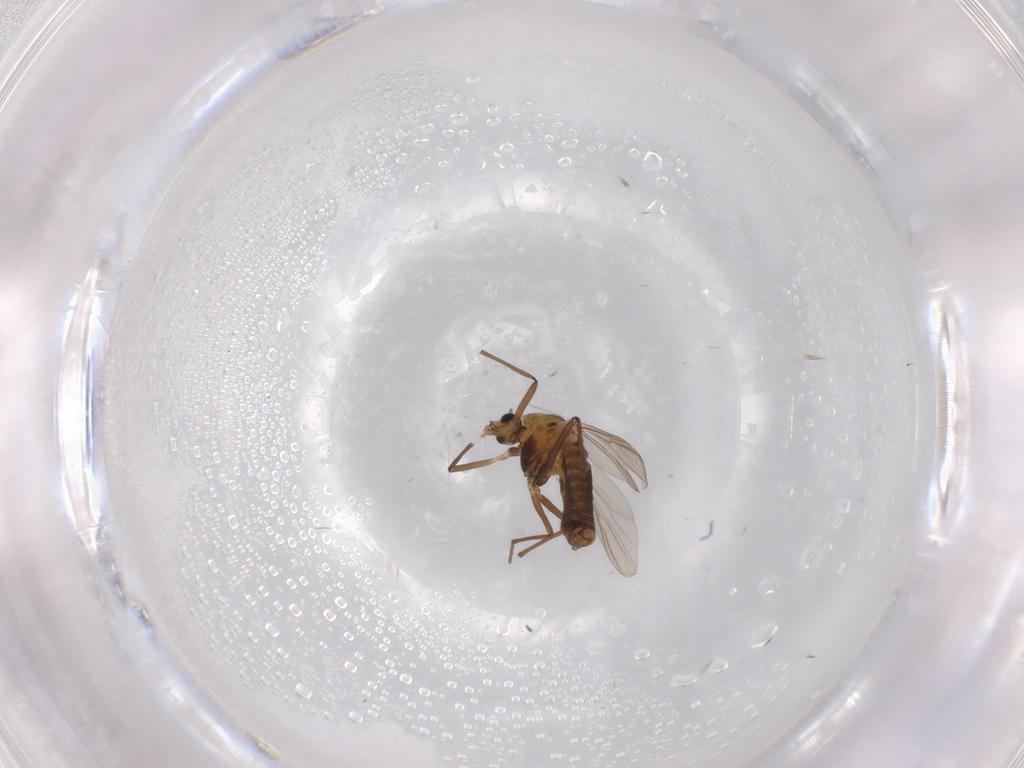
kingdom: Animalia
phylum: Arthropoda
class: Insecta
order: Diptera
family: Chironomidae
